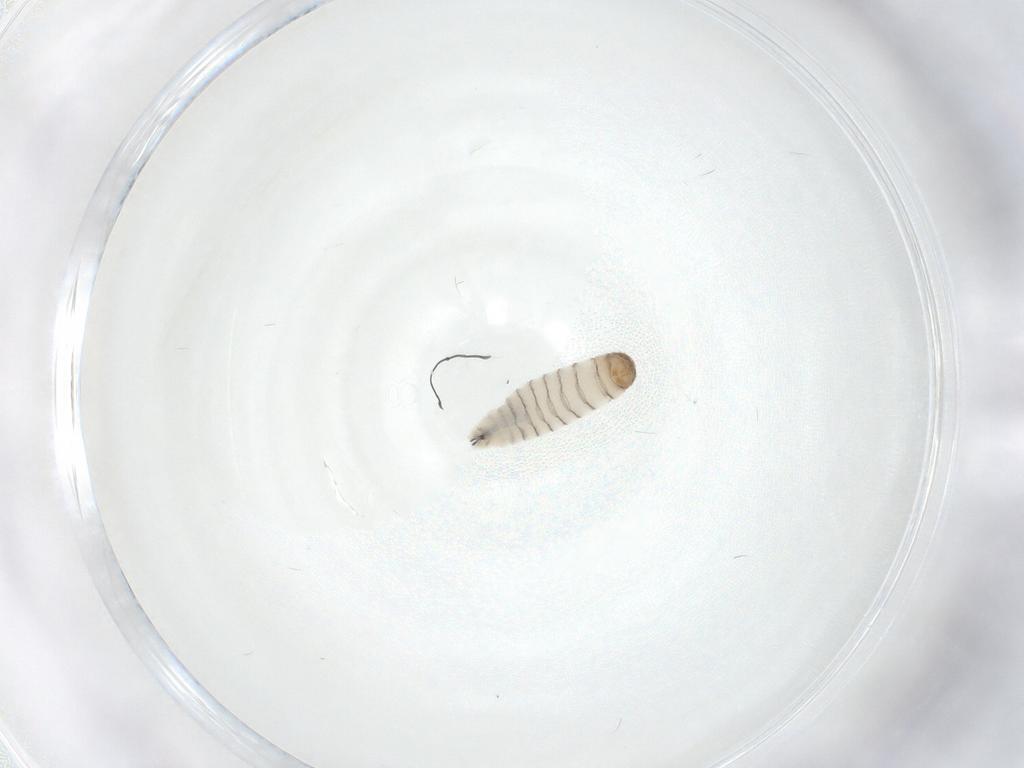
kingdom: Animalia
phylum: Arthropoda
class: Insecta
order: Diptera
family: Sarcophagidae
